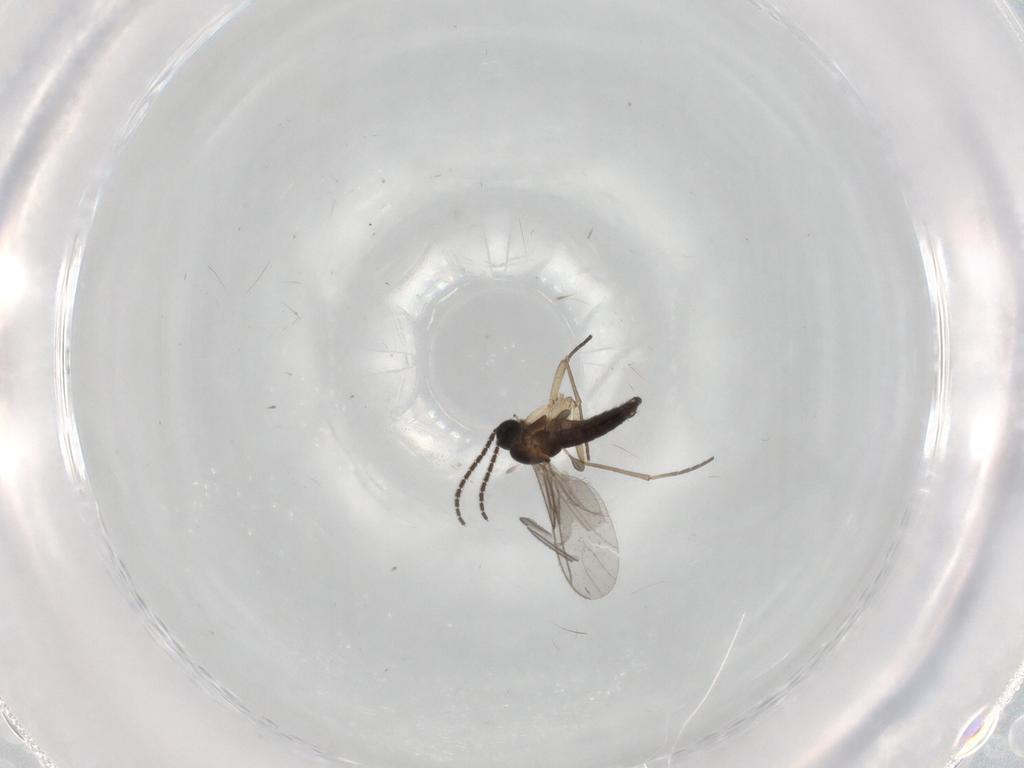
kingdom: Animalia
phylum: Arthropoda
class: Insecta
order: Diptera
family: Sciaridae
